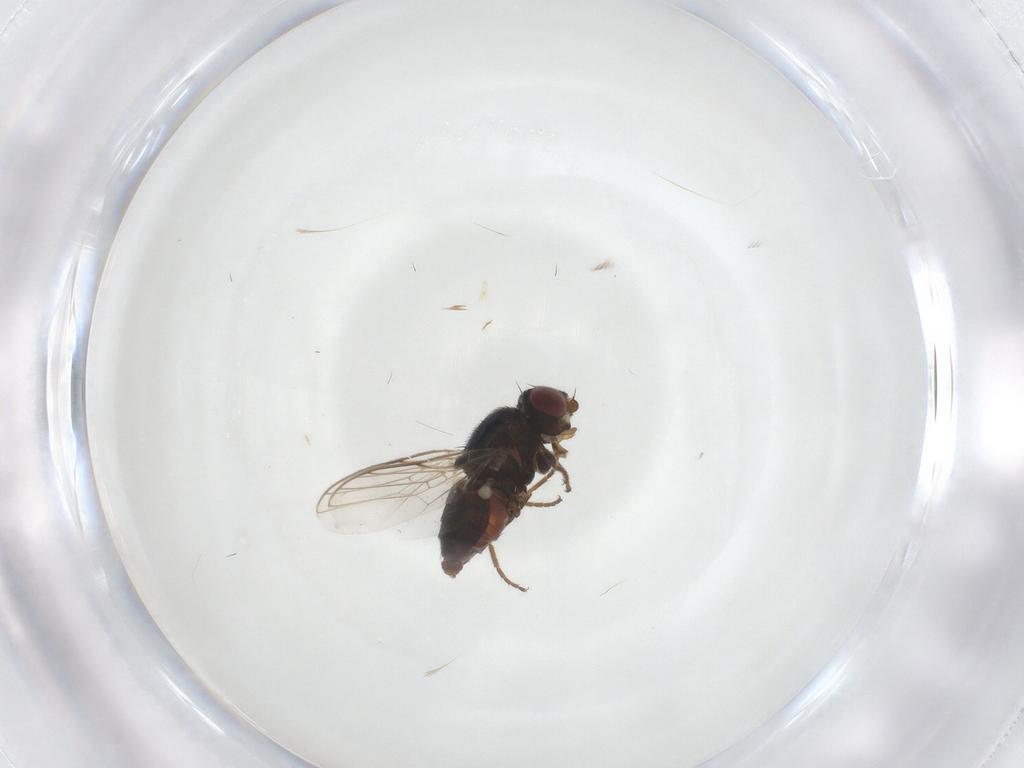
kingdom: Animalia
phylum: Arthropoda
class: Insecta
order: Diptera
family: Chloropidae
